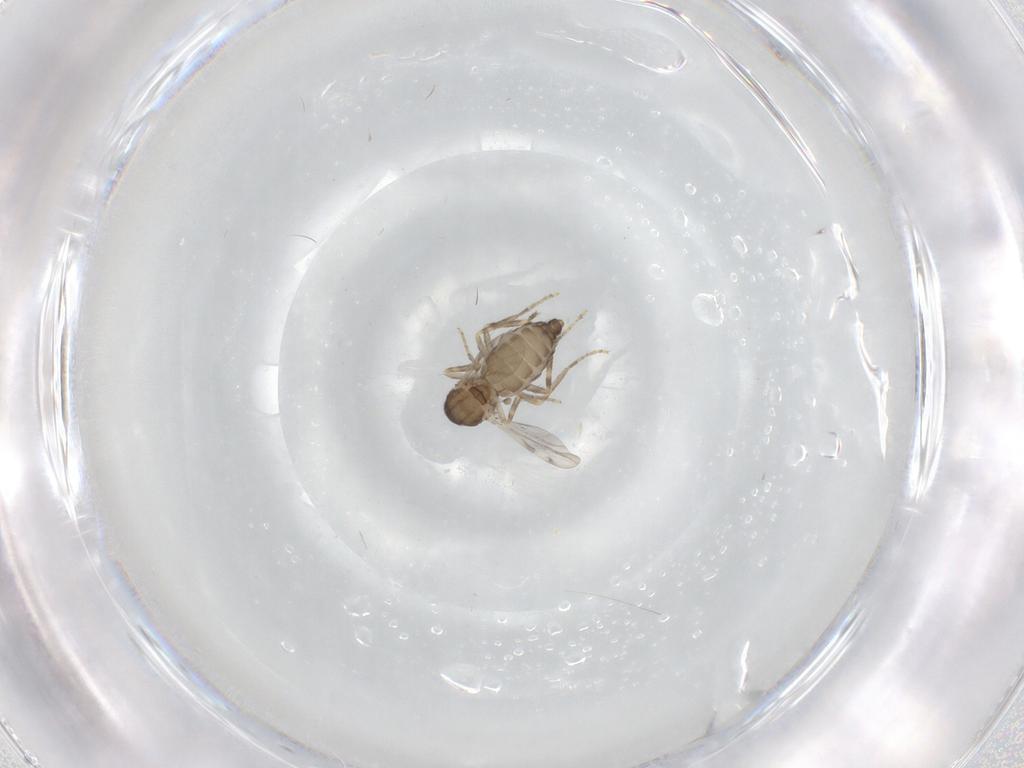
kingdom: Animalia
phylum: Arthropoda
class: Insecta
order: Diptera
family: Ceratopogonidae
